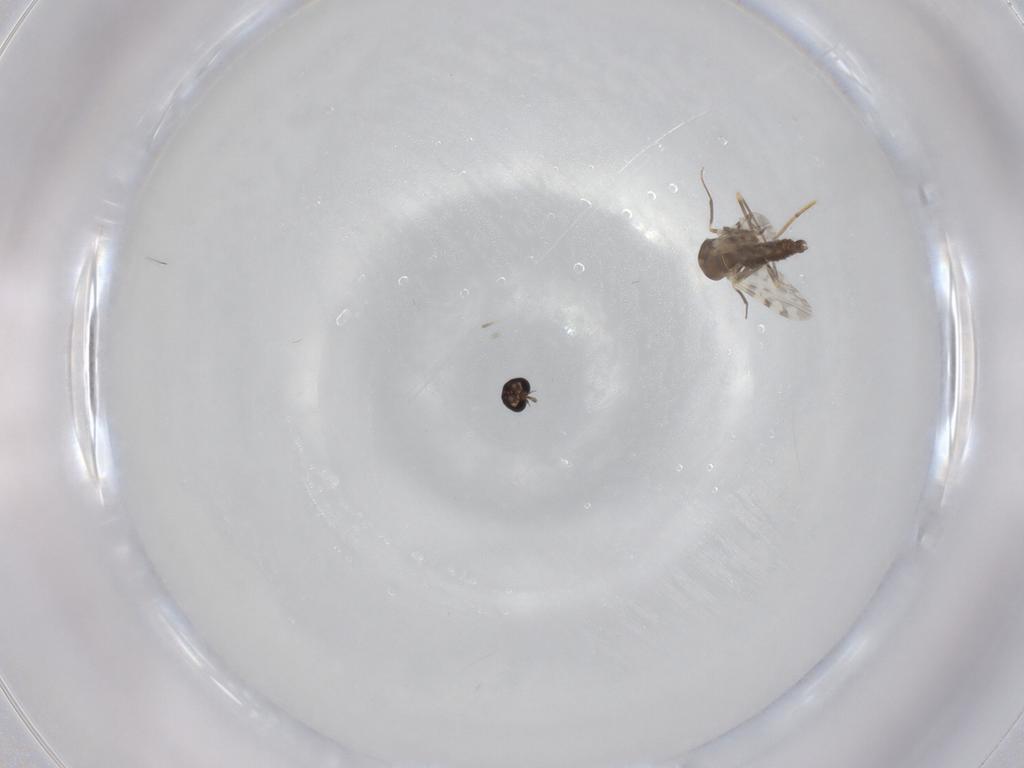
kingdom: Animalia
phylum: Arthropoda
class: Insecta
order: Diptera
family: Ceratopogonidae
